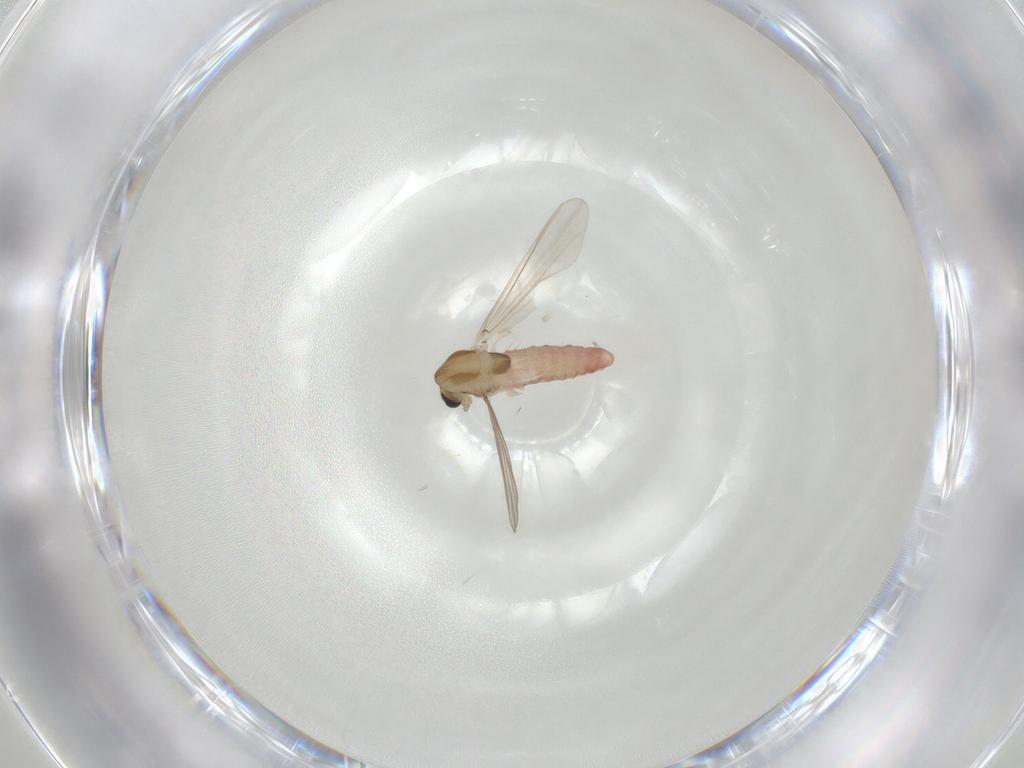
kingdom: Animalia
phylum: Arthropoda
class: Insecta
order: Diptera
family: Chironomidae
